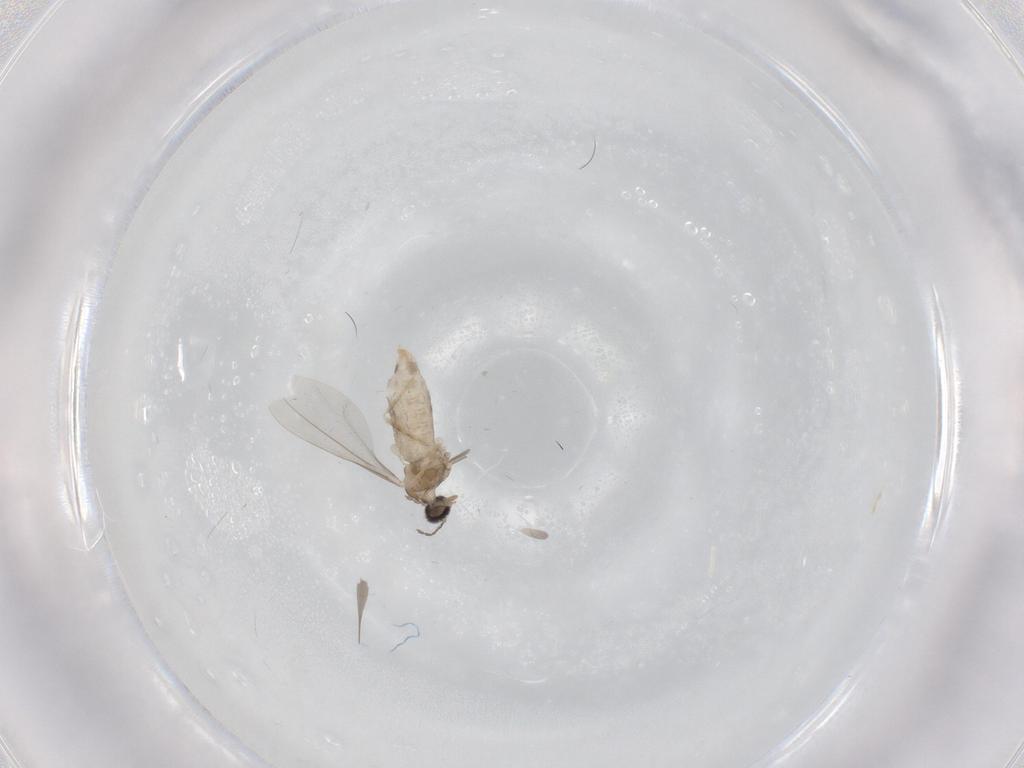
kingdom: Animalia
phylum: Arthropoda
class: Insecta
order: Diptera
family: Cecidomyiidae
